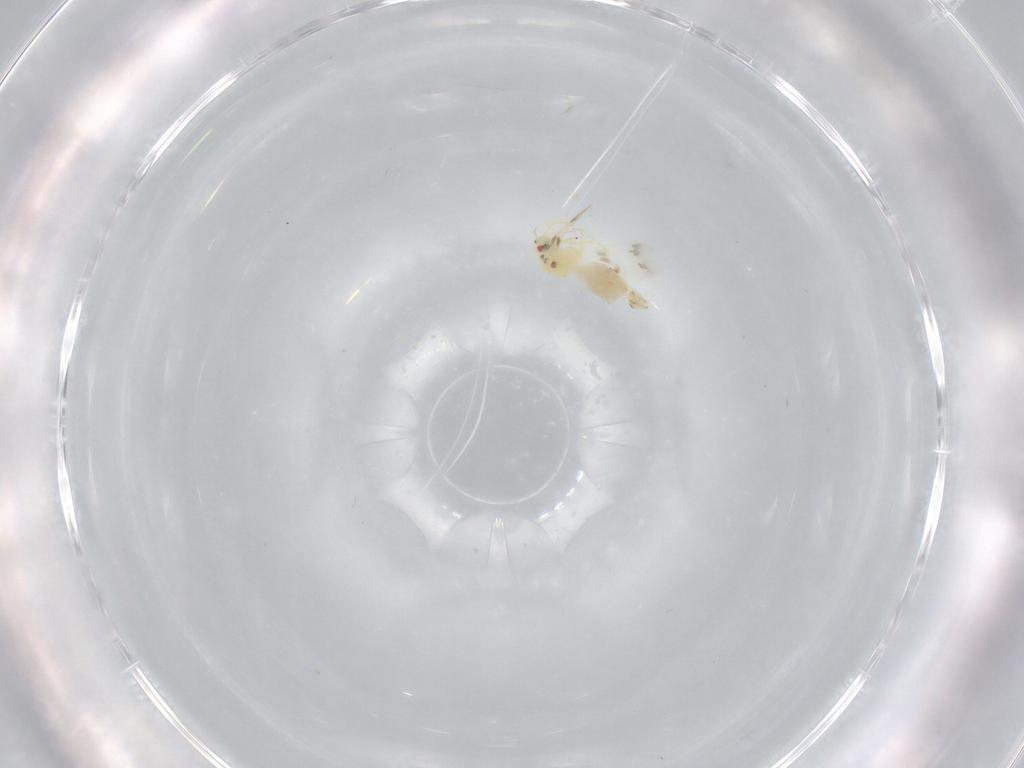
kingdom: Animalia
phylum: Arthropoda
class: Insecta
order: Hemiptera
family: Aleyrodidae
